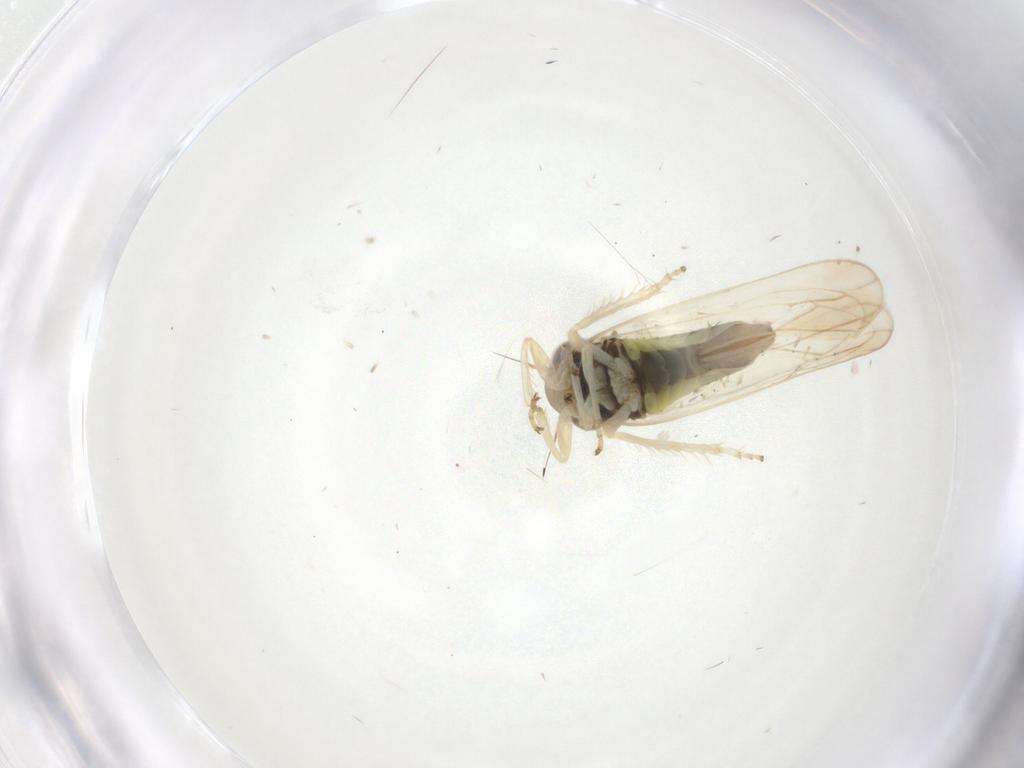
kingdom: Animalia
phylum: Arthropoda
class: Insecta
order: Hemiptera
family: Cicadellidae
